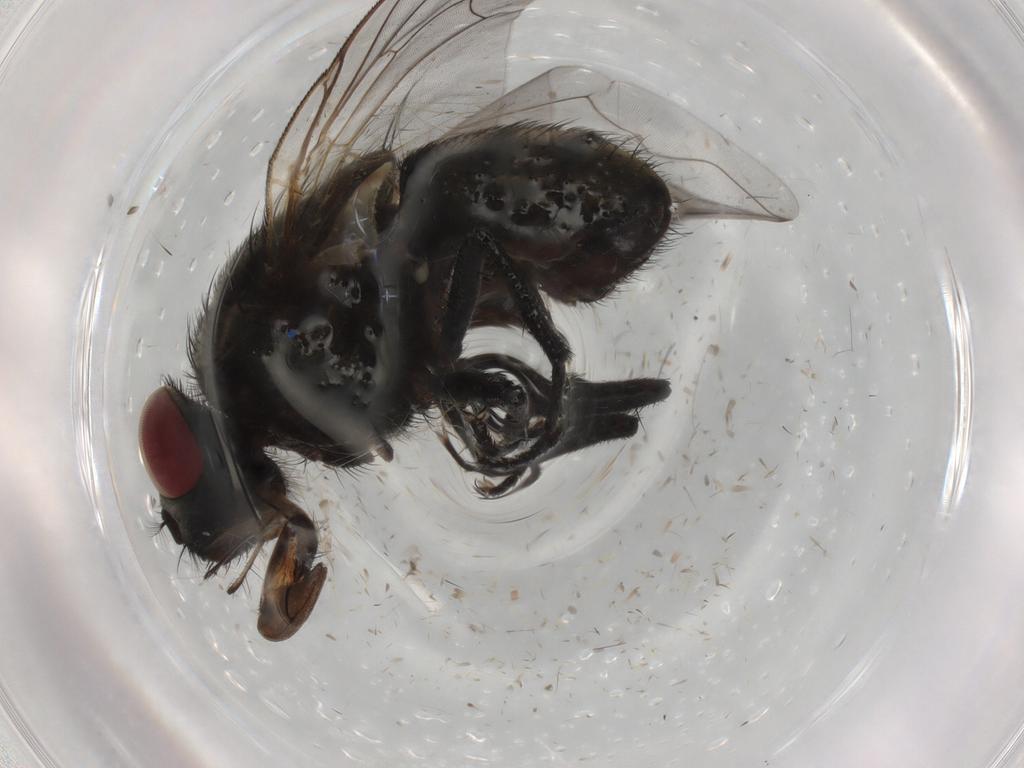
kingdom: Animalia
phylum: Arthropoda
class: Insecta
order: Diptera
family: Muscidae
